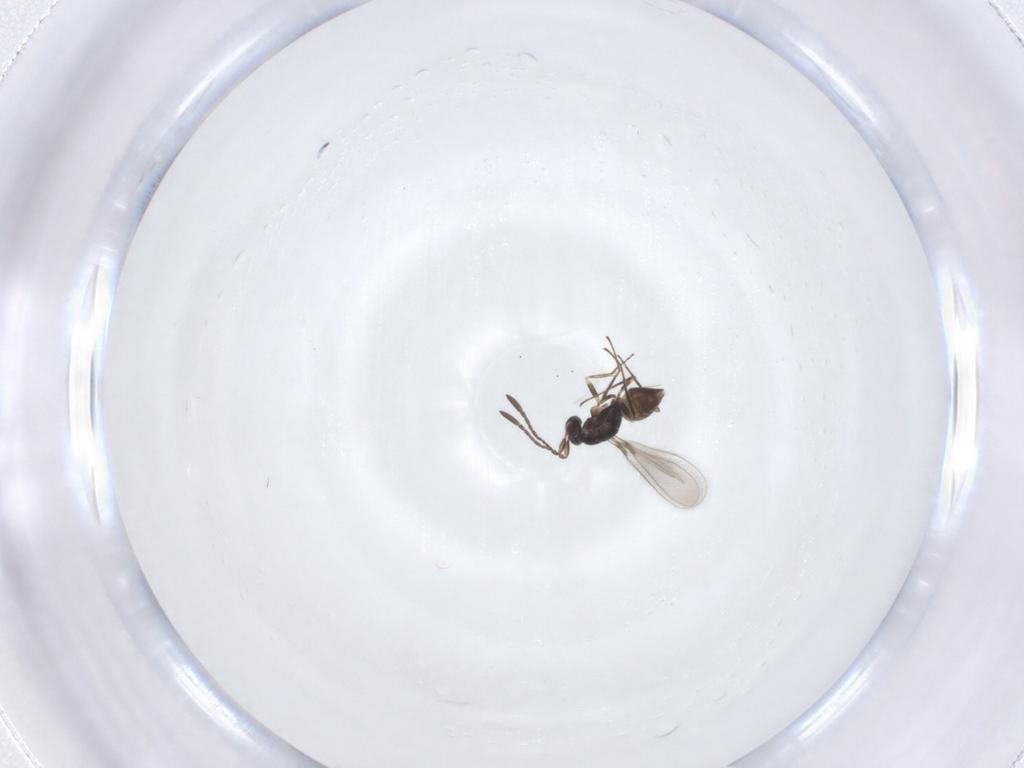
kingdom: Animalia
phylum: Arthropoda
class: Insecta
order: Hymenoptera
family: Mymaridae
